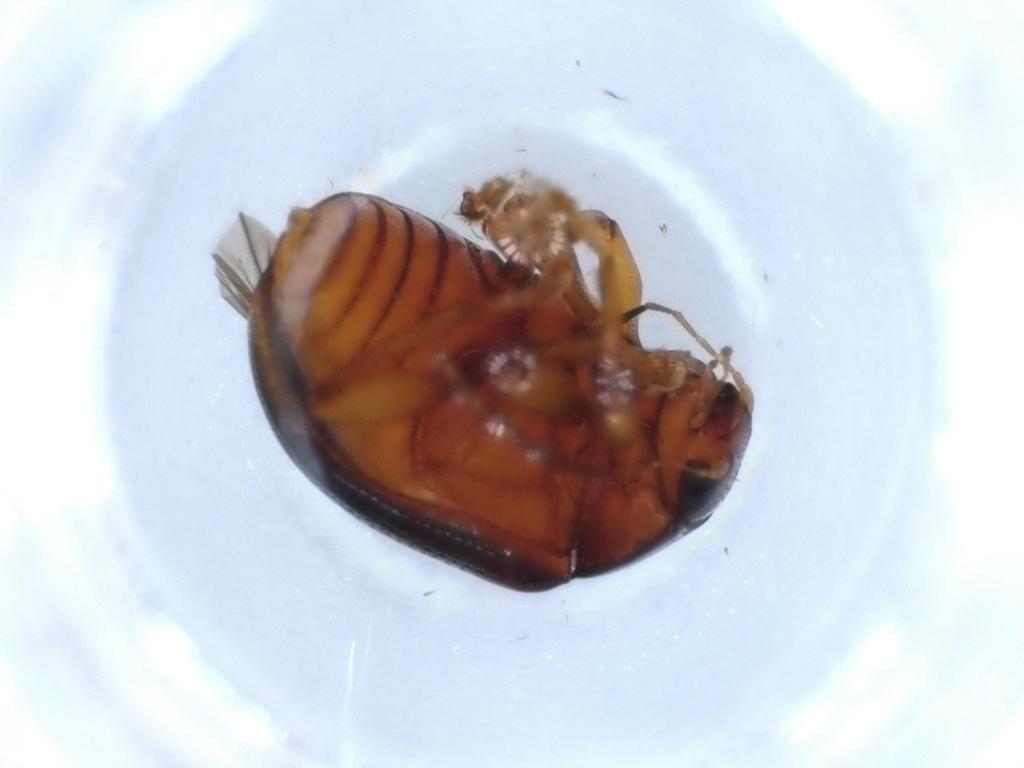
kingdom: Animalia
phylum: Arthropoda
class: Insecta
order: Coleoptera
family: Chrysomelidae
